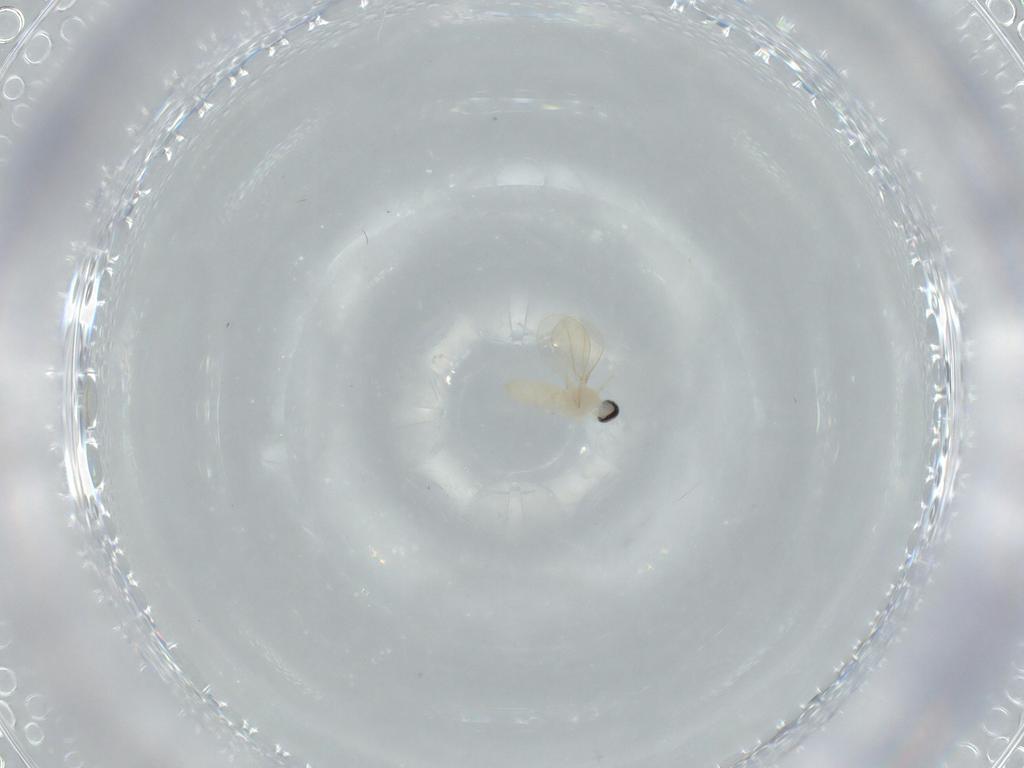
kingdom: Animalia
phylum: Arthropoda
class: Insecta
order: Diptera
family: Cecidomyiidae
